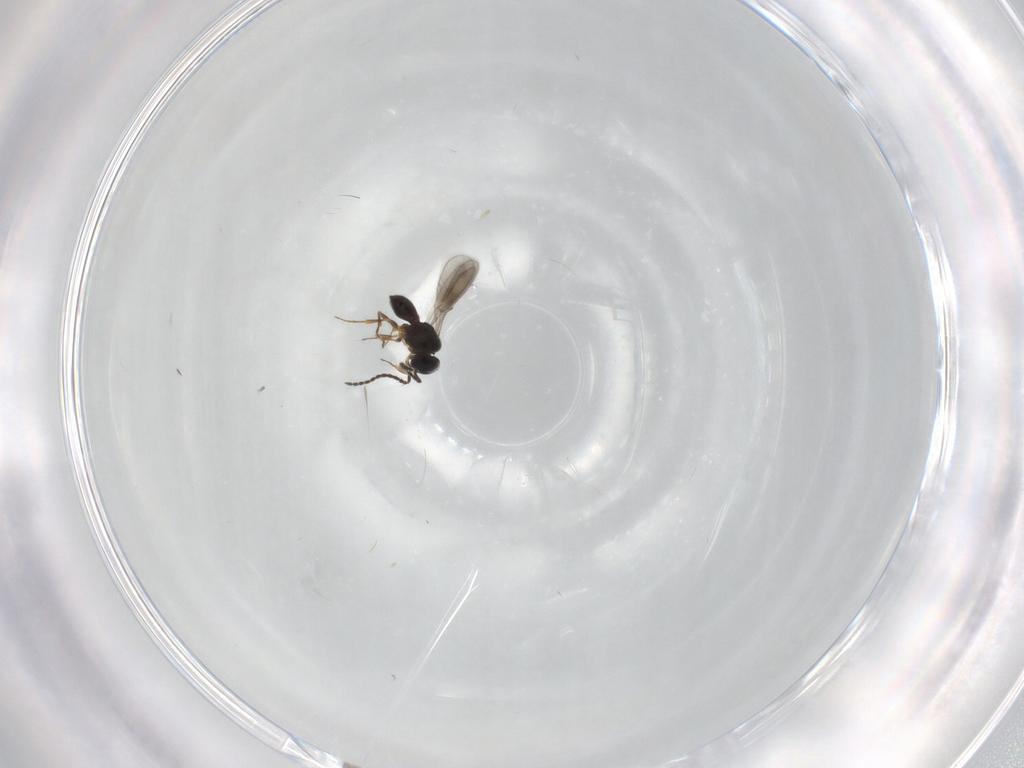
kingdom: Animalia
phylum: Arthropoda
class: Insecta
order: Hymenoptera
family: Scelionidae
